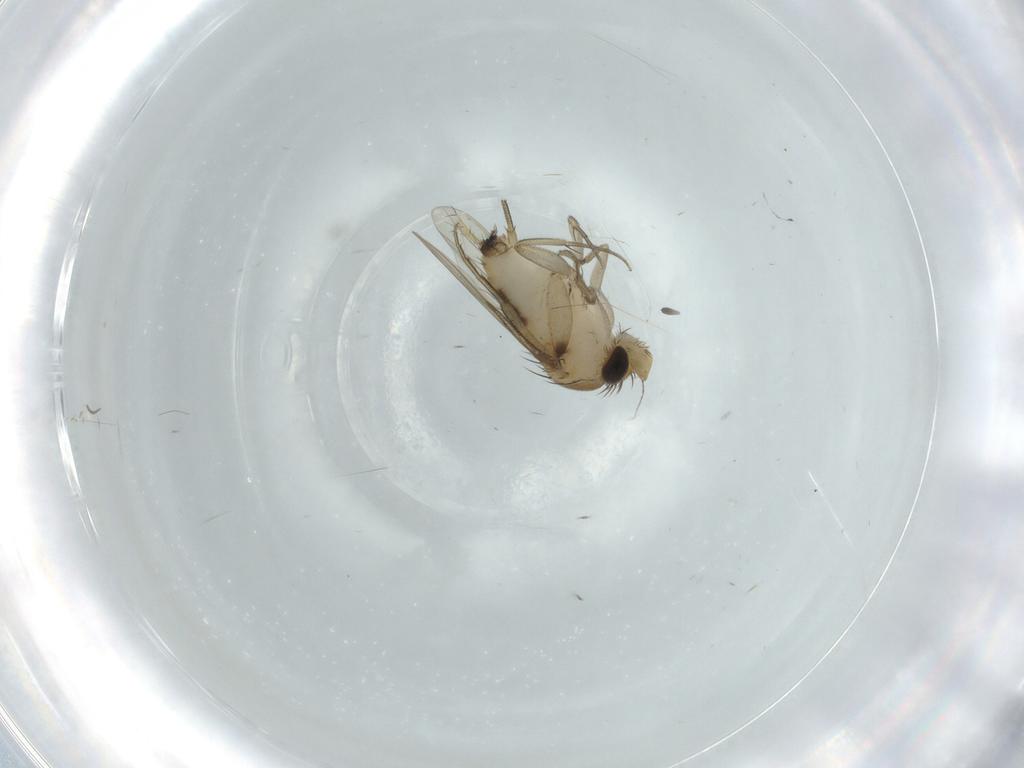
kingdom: Animalia
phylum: Arthropoda
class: Insecta
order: Diptera
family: Phoridae
